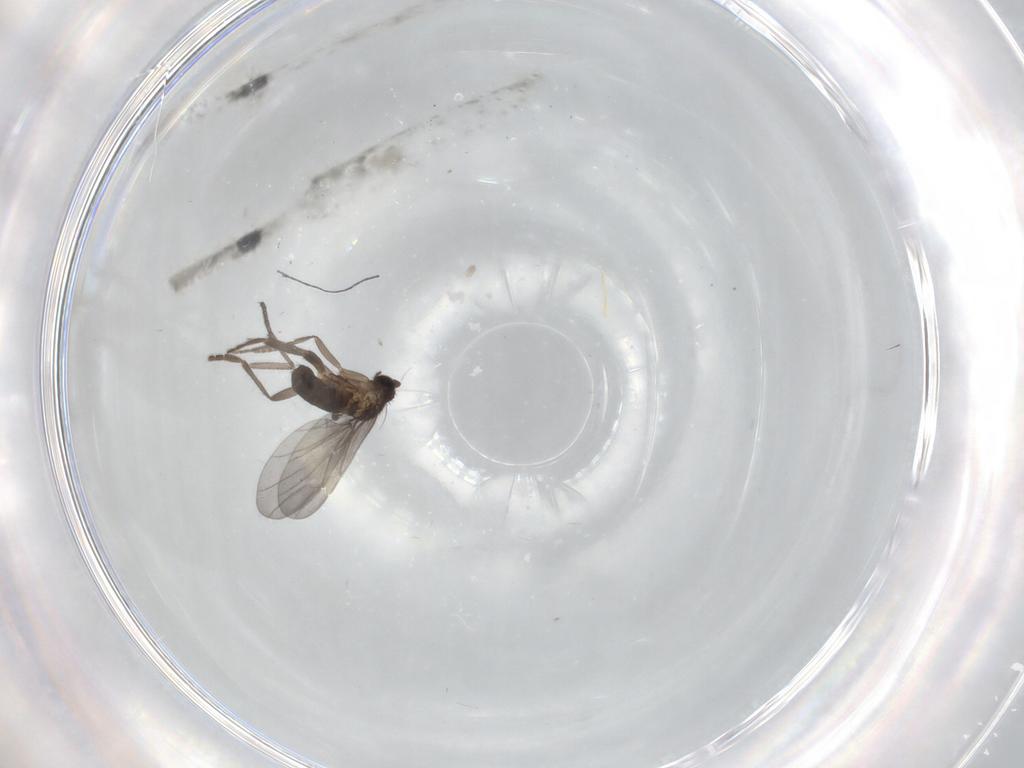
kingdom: Animalia
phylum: Arthropoda
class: Insecta
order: Diptera
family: Phoridae
